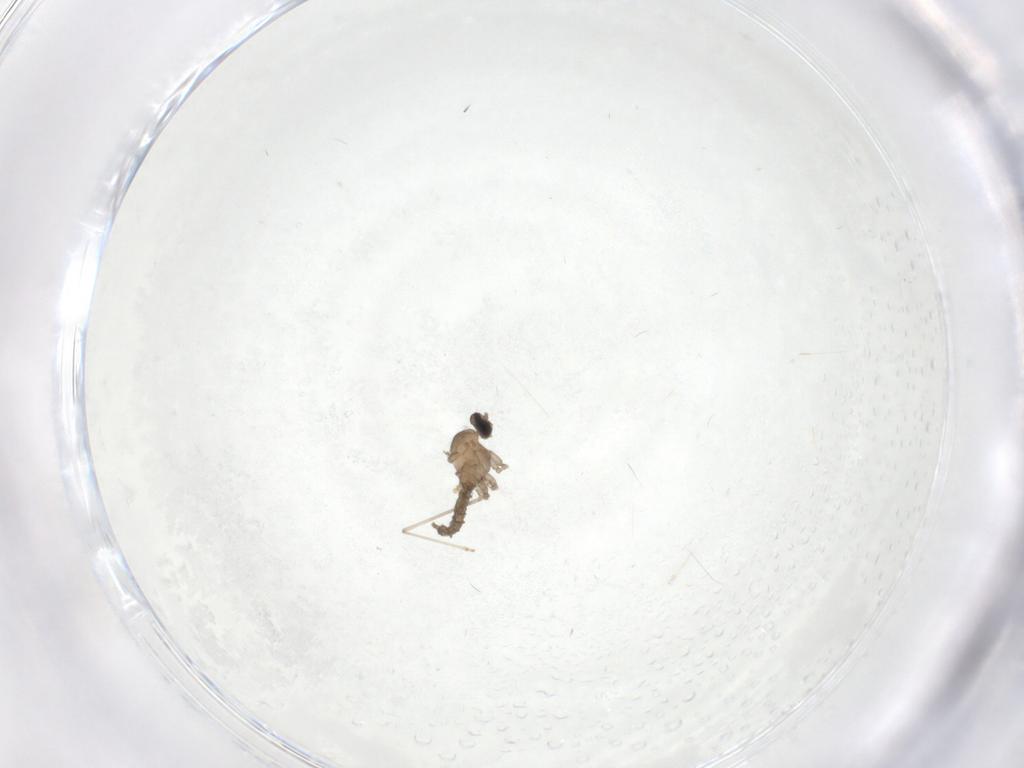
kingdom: Animalia
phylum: Arthropoda
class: Insecta
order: Diptera
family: Cecidomyiidae
